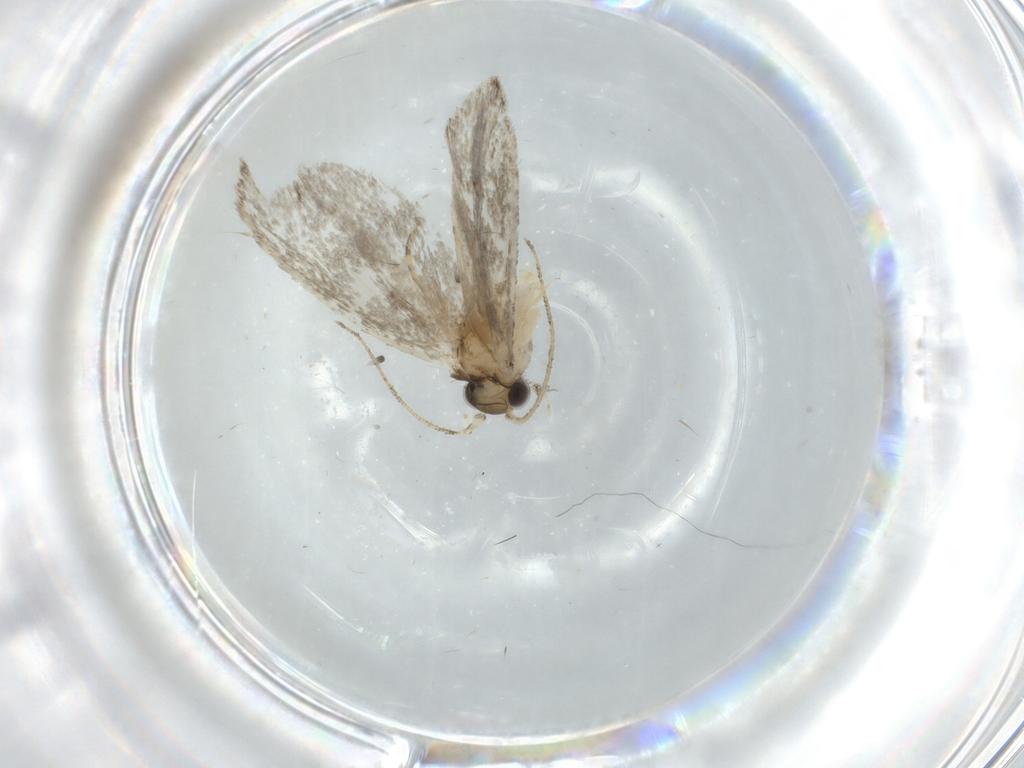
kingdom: Animalia
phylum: Arthropoda
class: Insecta
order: Lepidoptera
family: Tineidae
